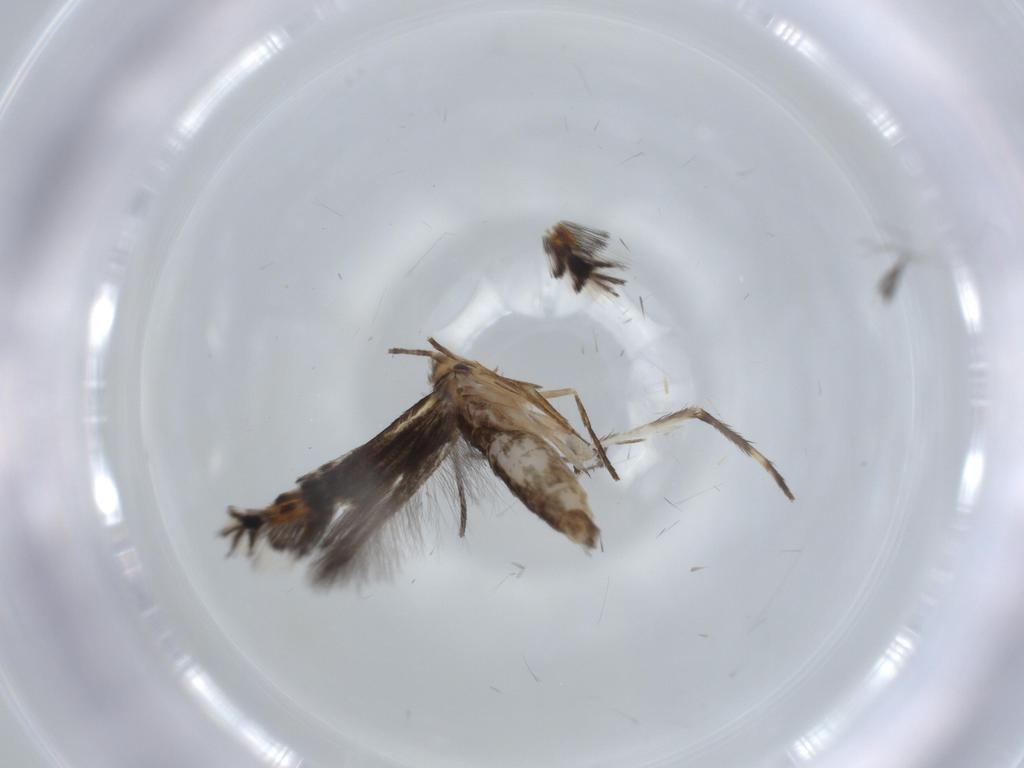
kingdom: Animalia
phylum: Arthropoda
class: Insecta
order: Lepidoptera
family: Nepticulidae
